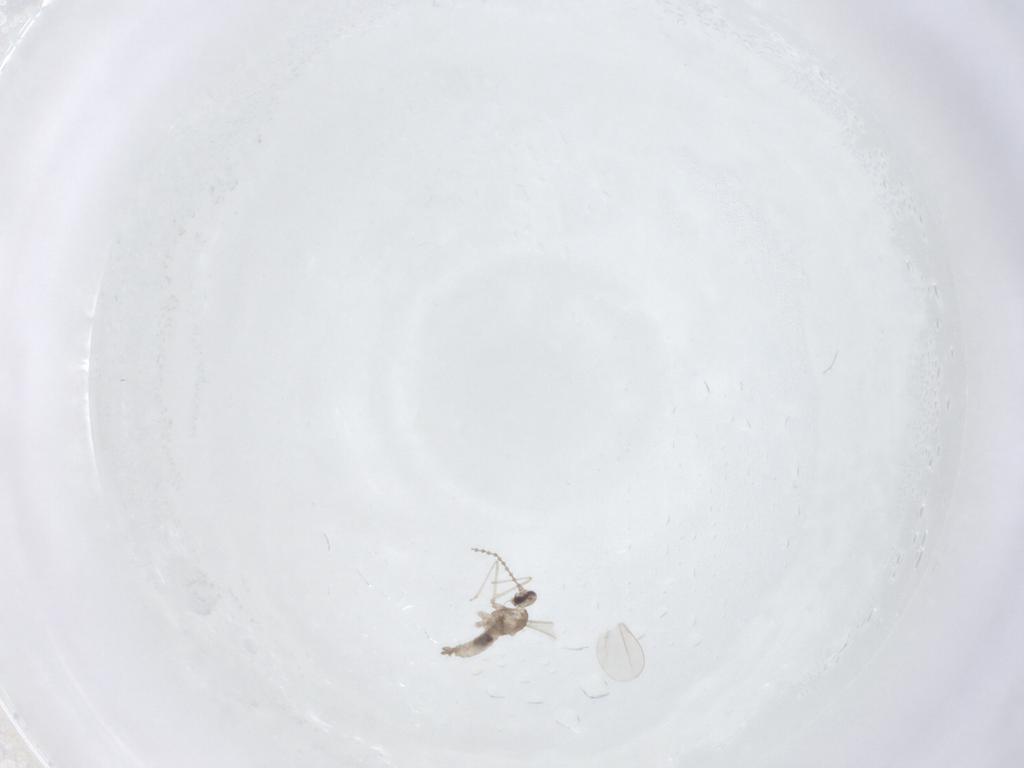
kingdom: Animalia
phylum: Arthropoda
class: Insecta
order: Diptera
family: Cecidomyiidae
